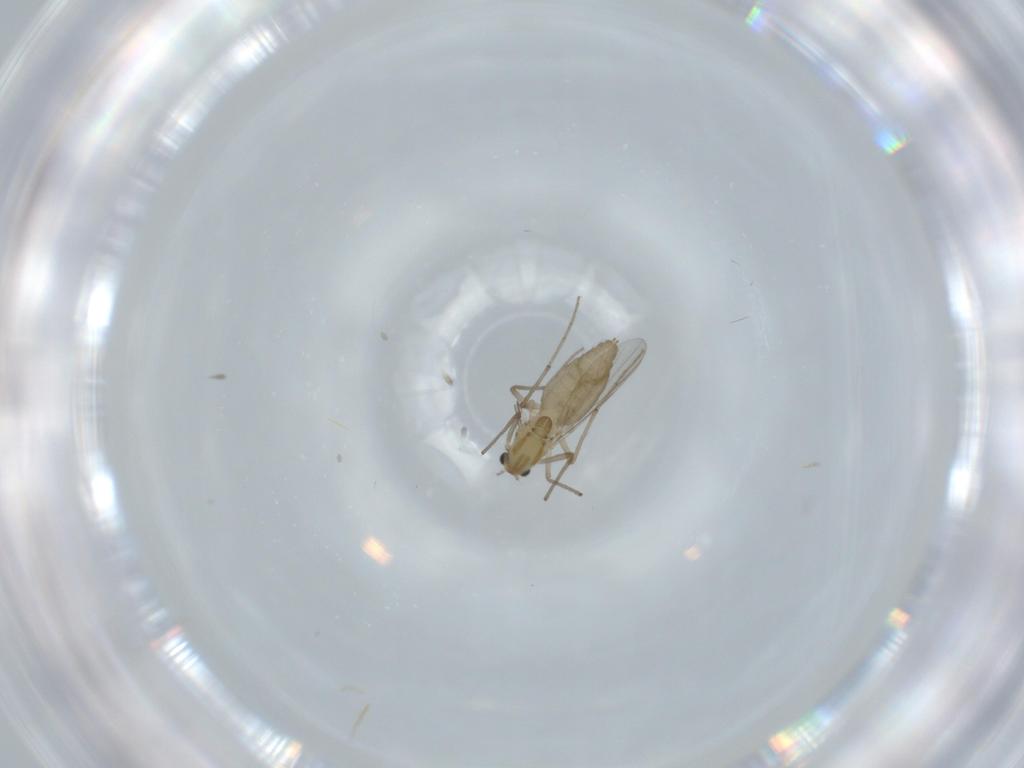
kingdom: Animalia
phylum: Arthropoda
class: Insecta
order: Diptera
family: Chironomidae
